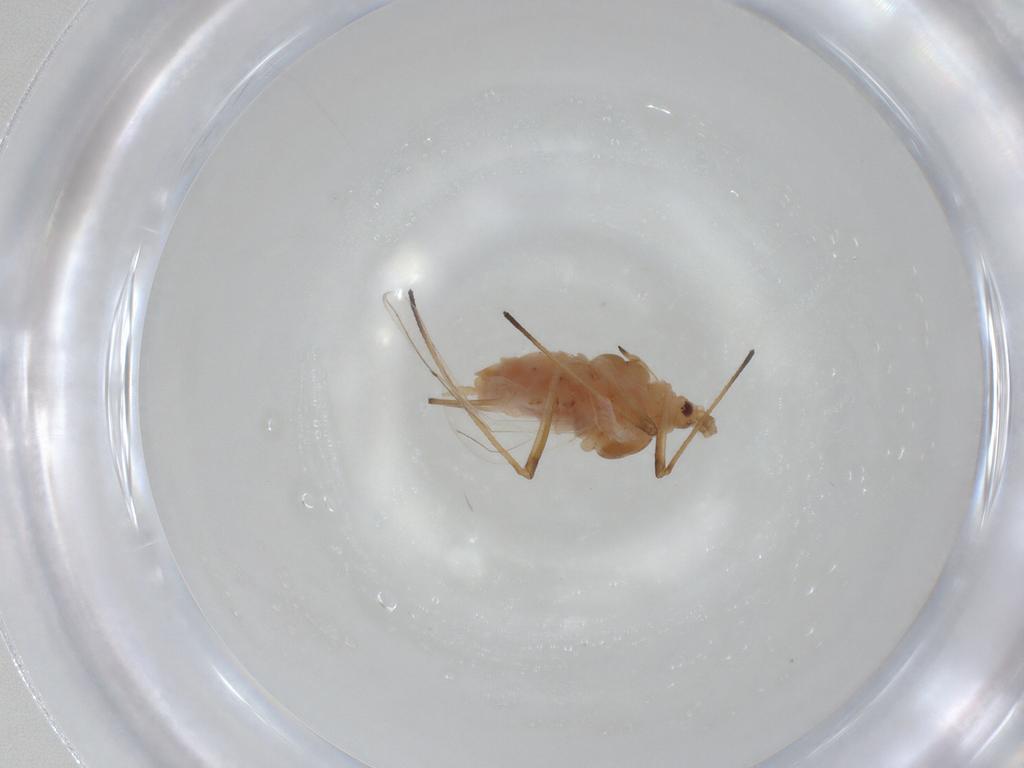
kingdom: Animalia
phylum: Arthropoda
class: Insecta
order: Hemiptera
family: Aphididae
